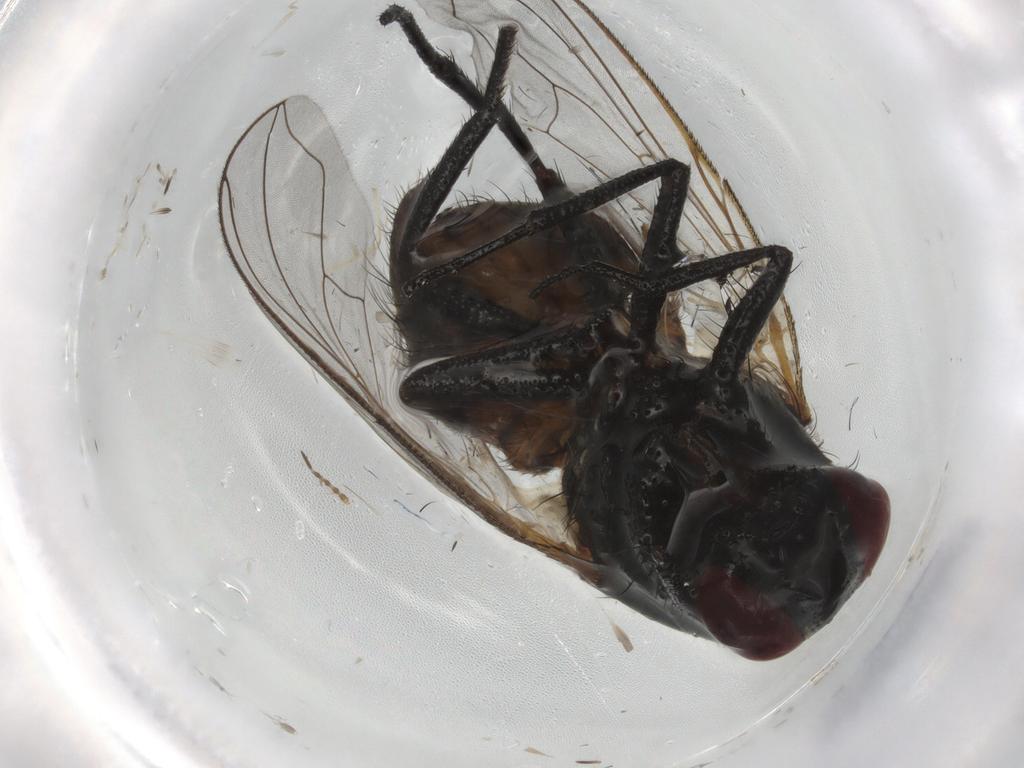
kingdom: Animalia
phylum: Arthropoda
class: Insecta
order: Diptera
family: Muscidae
